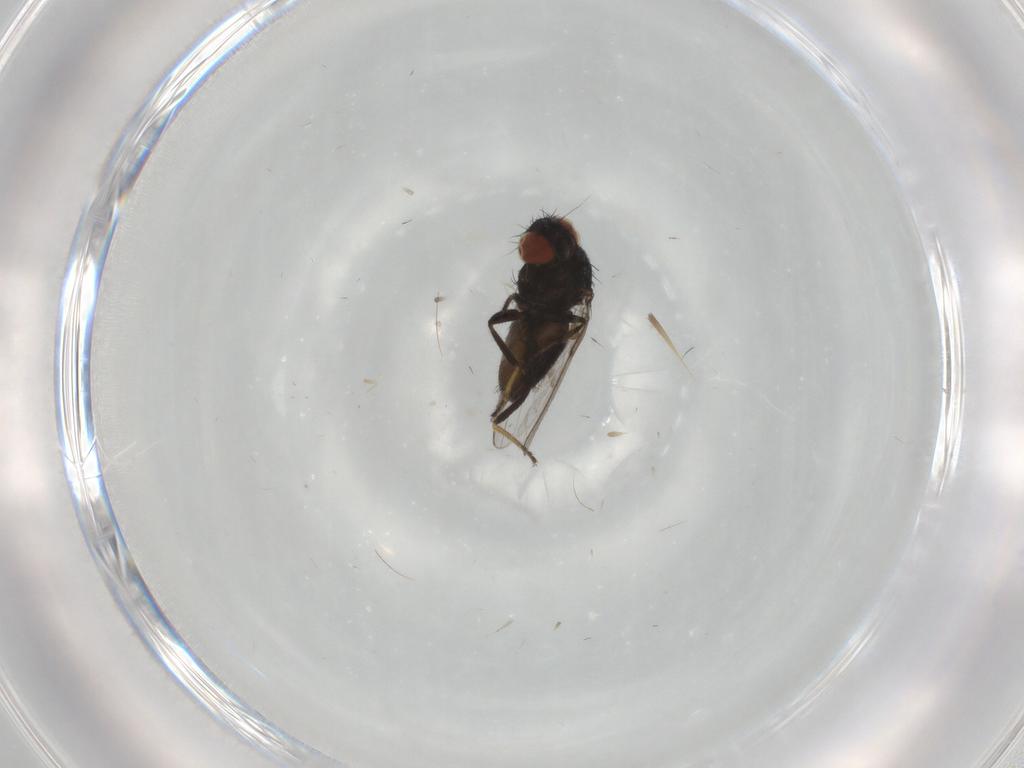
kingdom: Animalia
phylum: Arthropoda
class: Insecta
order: Diptera
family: Milichiidae
